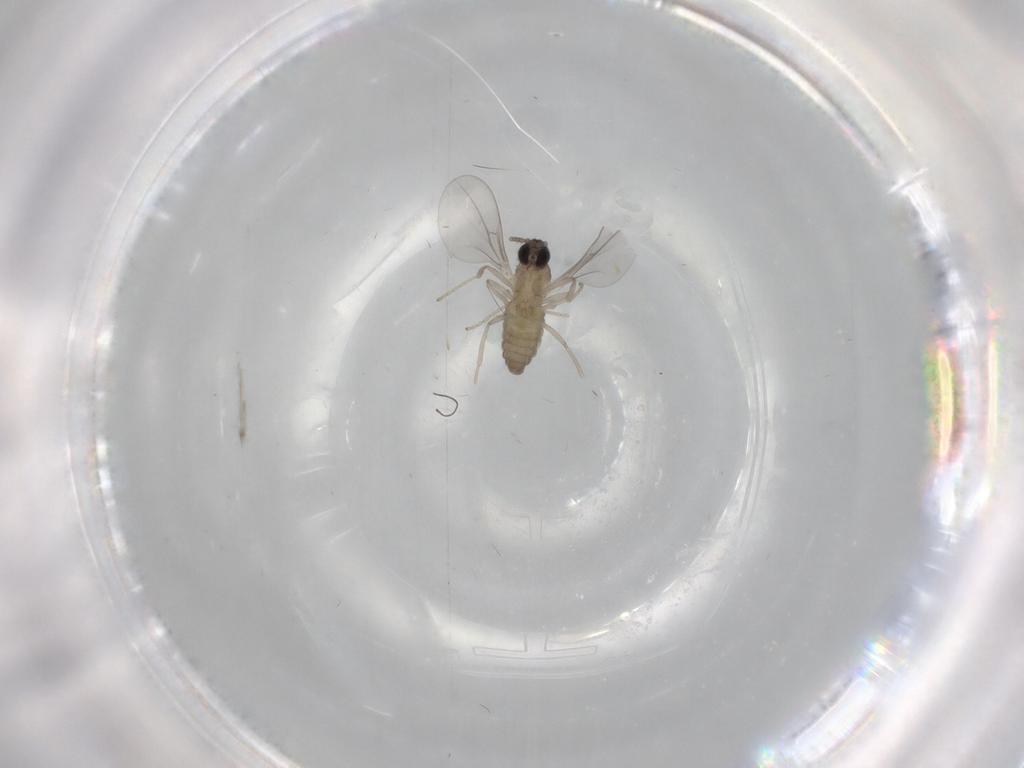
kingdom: Animalia
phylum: Arthropoda
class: Insecta
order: Diptera
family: Cecidomyiidae
